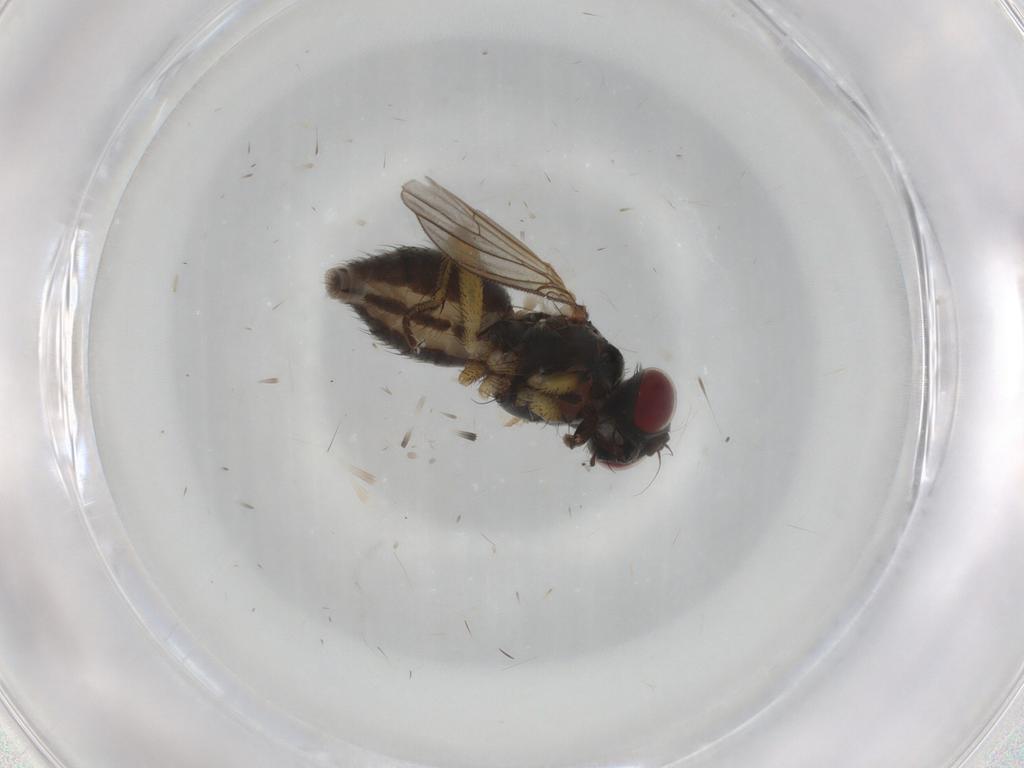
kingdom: Animalia
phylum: Arthropoda
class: Insecta
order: Diptera
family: Muscidae
